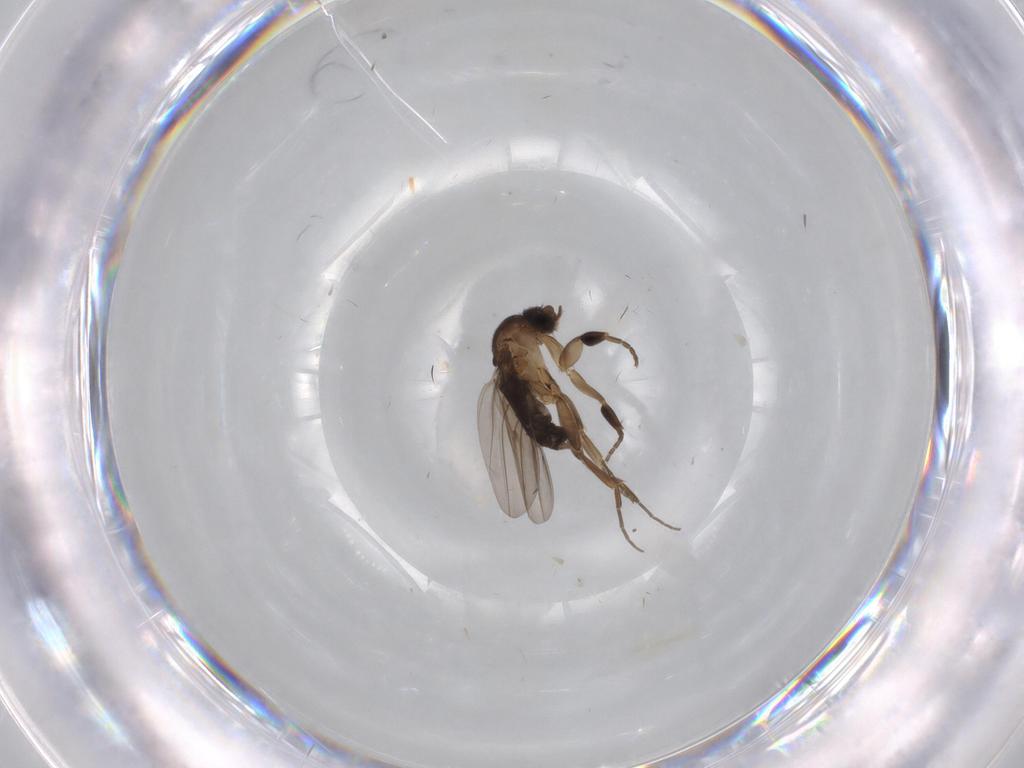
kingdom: Animalia
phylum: Arthropoda
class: Insecta
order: Diptera
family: Phoridae
